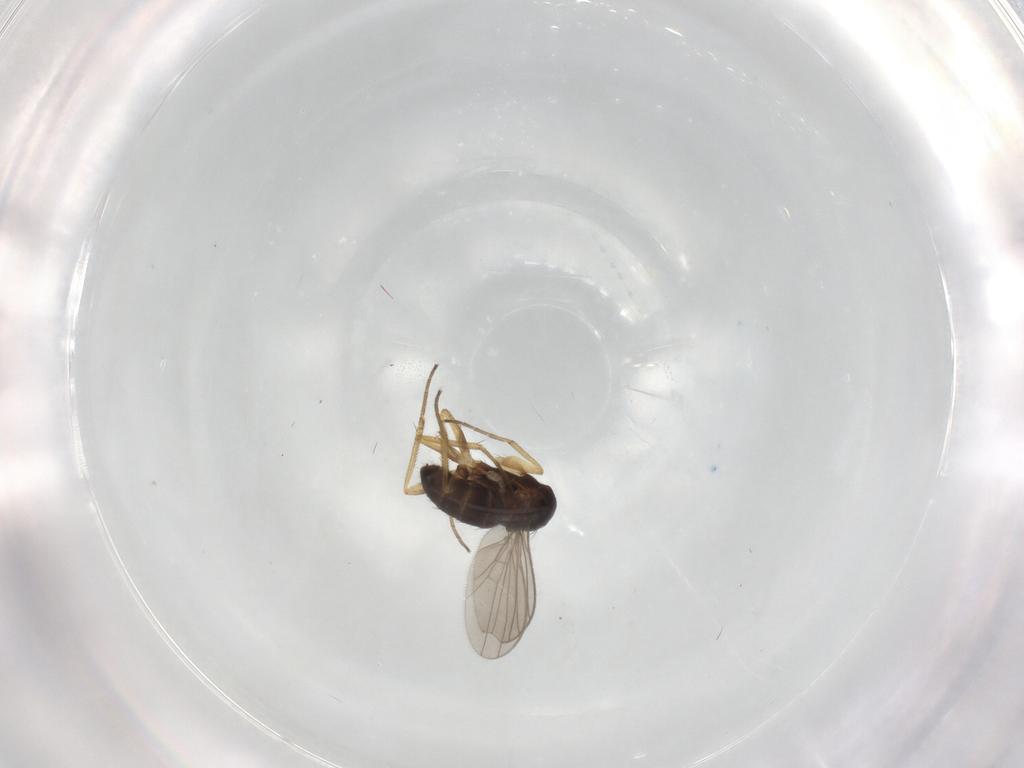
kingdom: Animalia
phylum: Arthropoda
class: Insecta
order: Diptera
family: Dolichopodidae
